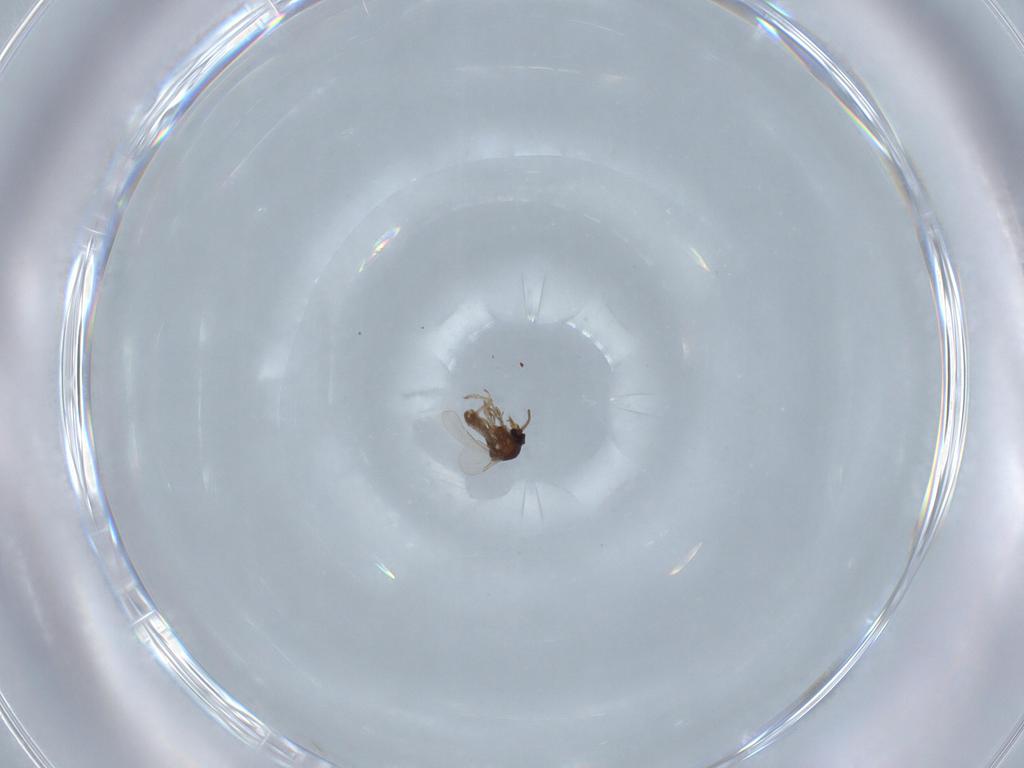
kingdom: Animalia
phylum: Arthropoda
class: Insecta
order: Diptera
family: Ceratopogonidae
